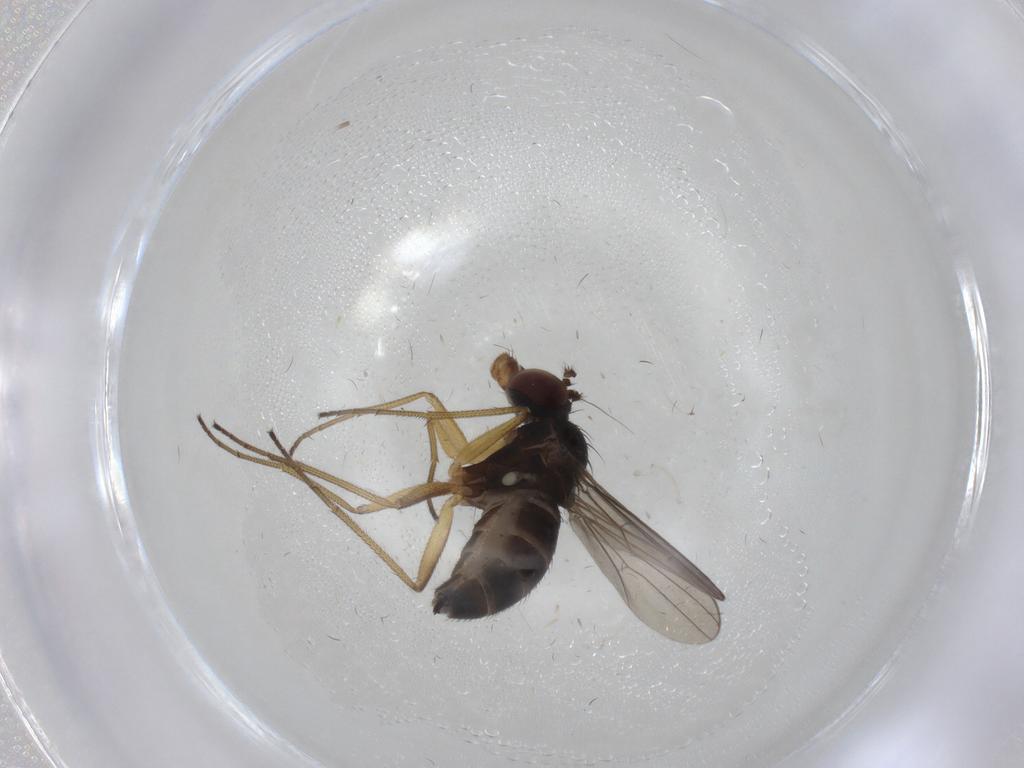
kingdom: Animalia
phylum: Arthropoda
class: Insecta
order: Diptera
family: Dolichopodidae
